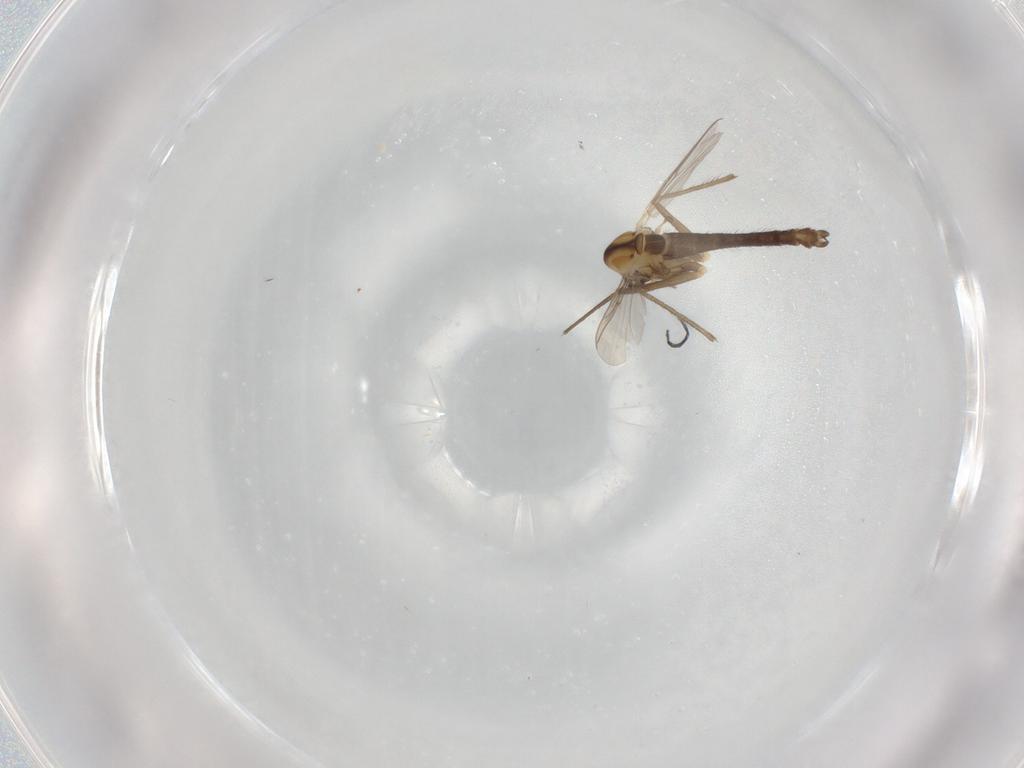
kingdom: Animalia
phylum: Arthropoda
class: Insecta
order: Diptera
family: Chironomidae
